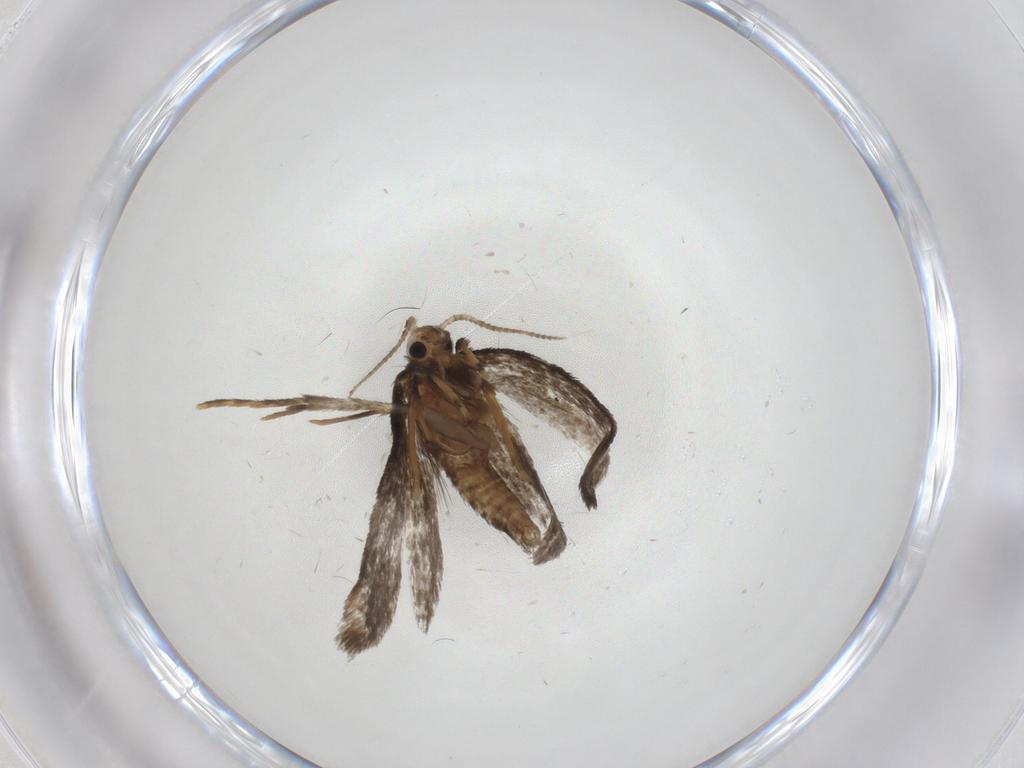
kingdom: Animalia
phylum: Arthropoda
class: Insecta
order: Lepidoptera
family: Psychidae
